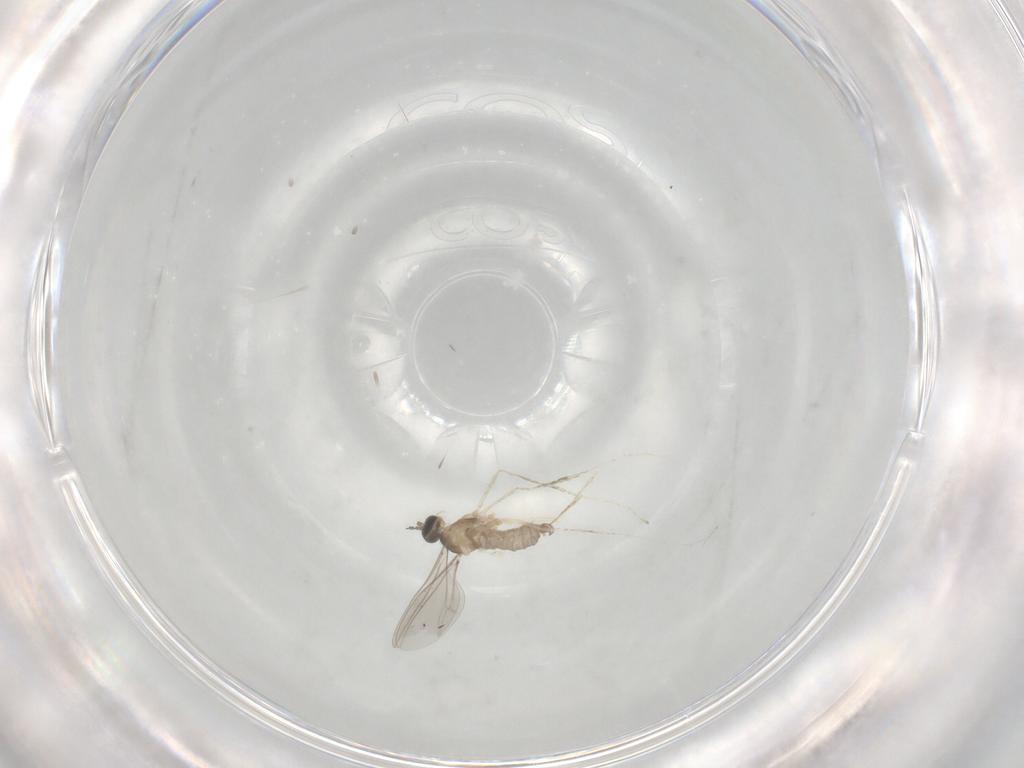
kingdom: Animalia
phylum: Arthropoda
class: Insecta
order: Diptera
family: Cecidomyiidae
